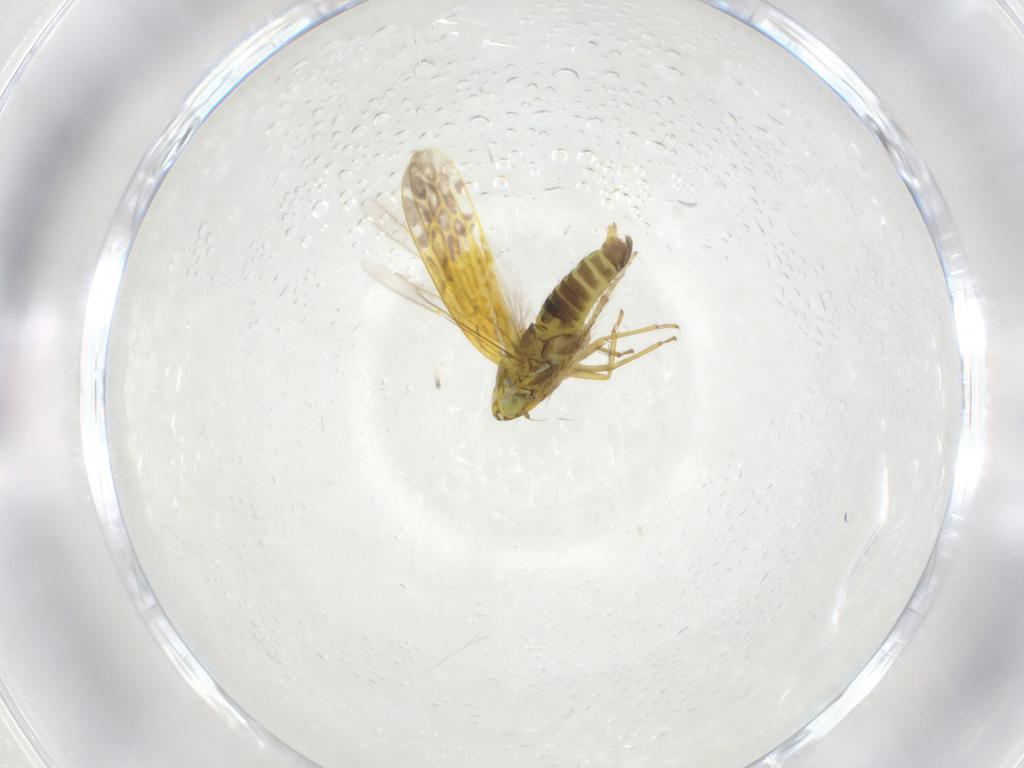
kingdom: Animalia
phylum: Arthropoda
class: Insecta
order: Hemiptera
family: Cicadellidae
